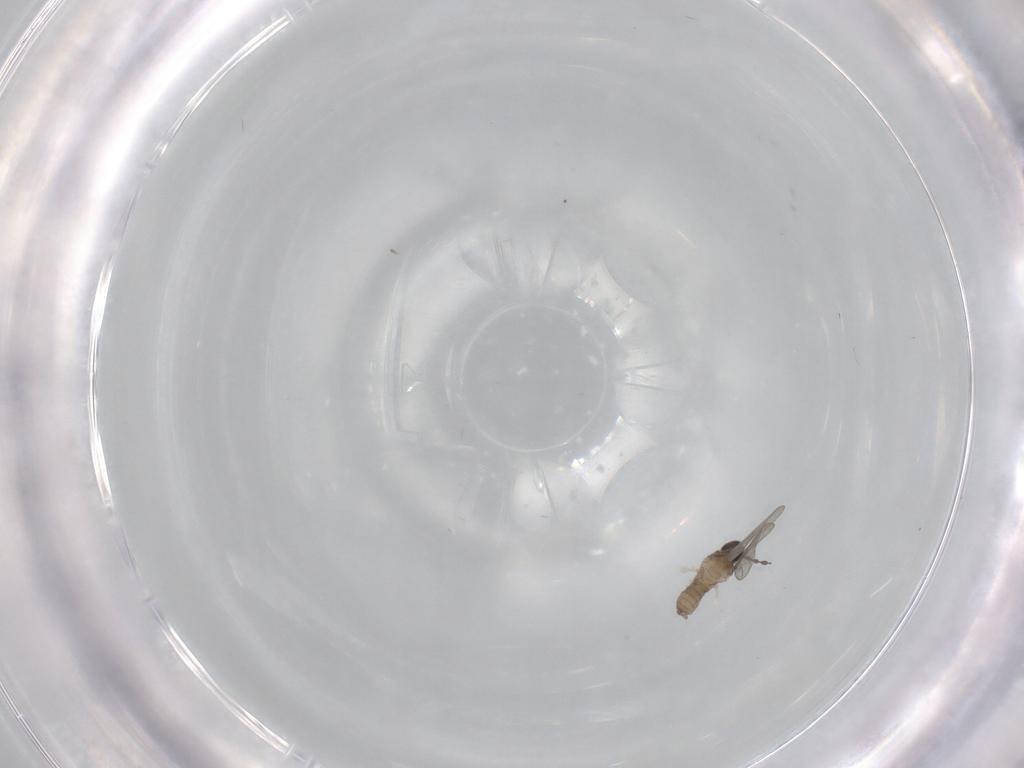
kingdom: Animalia
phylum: Arthropoda
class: Insecta
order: Diptera
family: Cecidomyiidae
